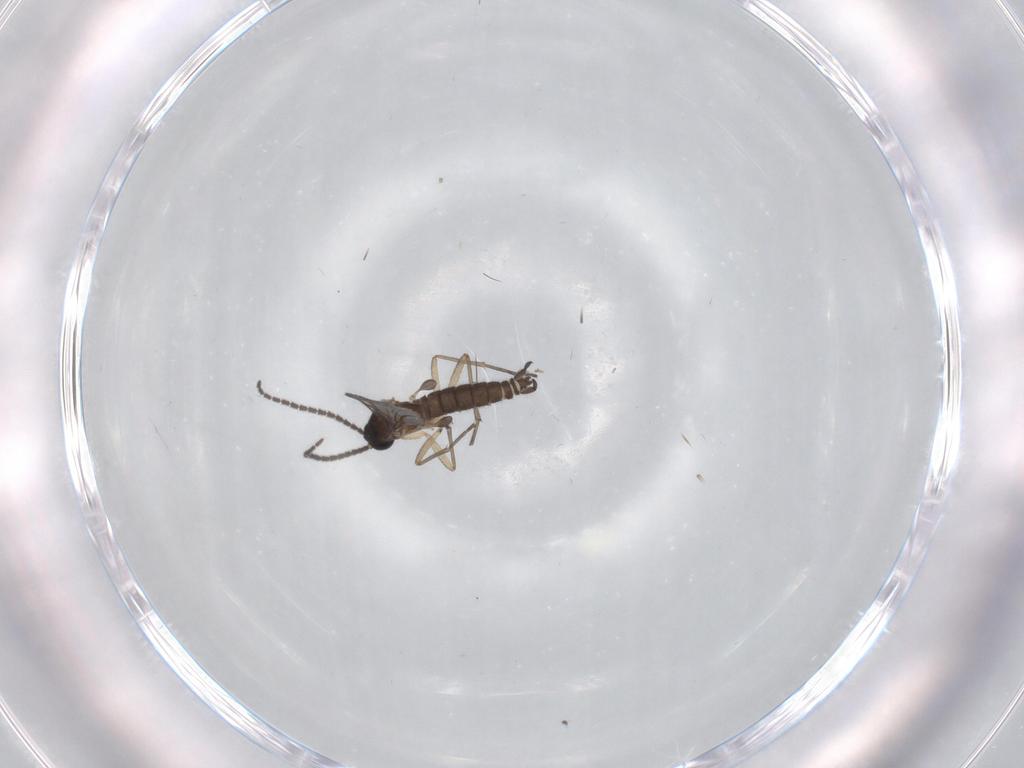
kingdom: Animalia
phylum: Arthropoda
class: Insecta
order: Diptera
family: Sciaridae
